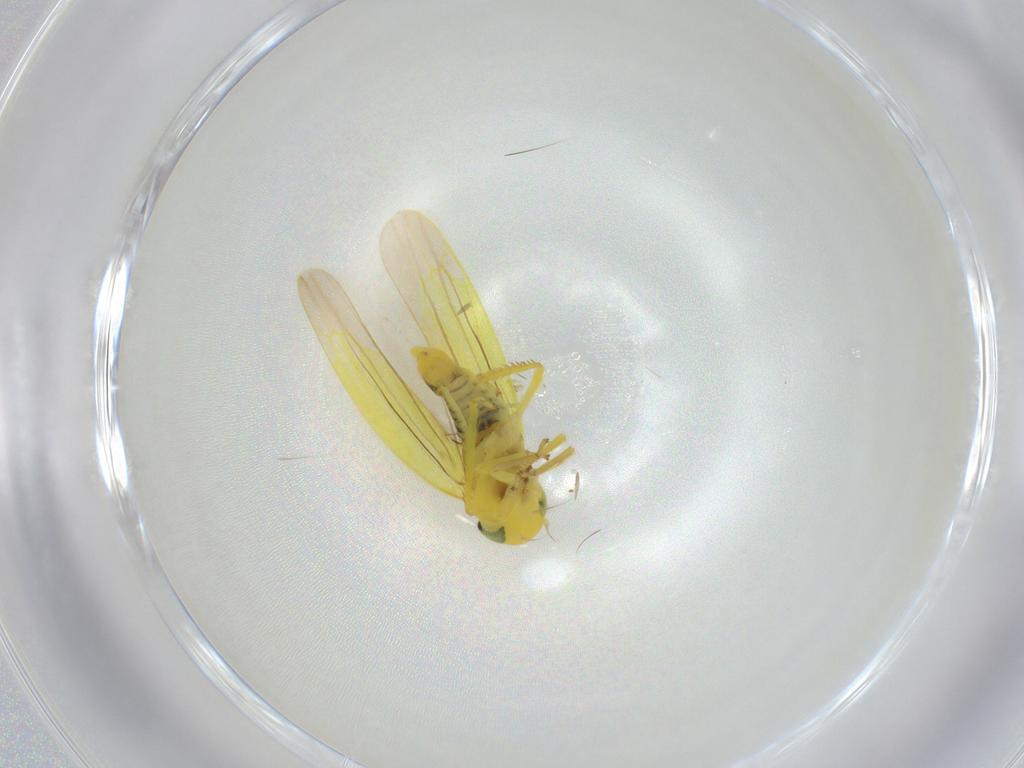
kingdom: Animalia
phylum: Arthropoda
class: Insecta
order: Hemiptera
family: Cicadellidae
